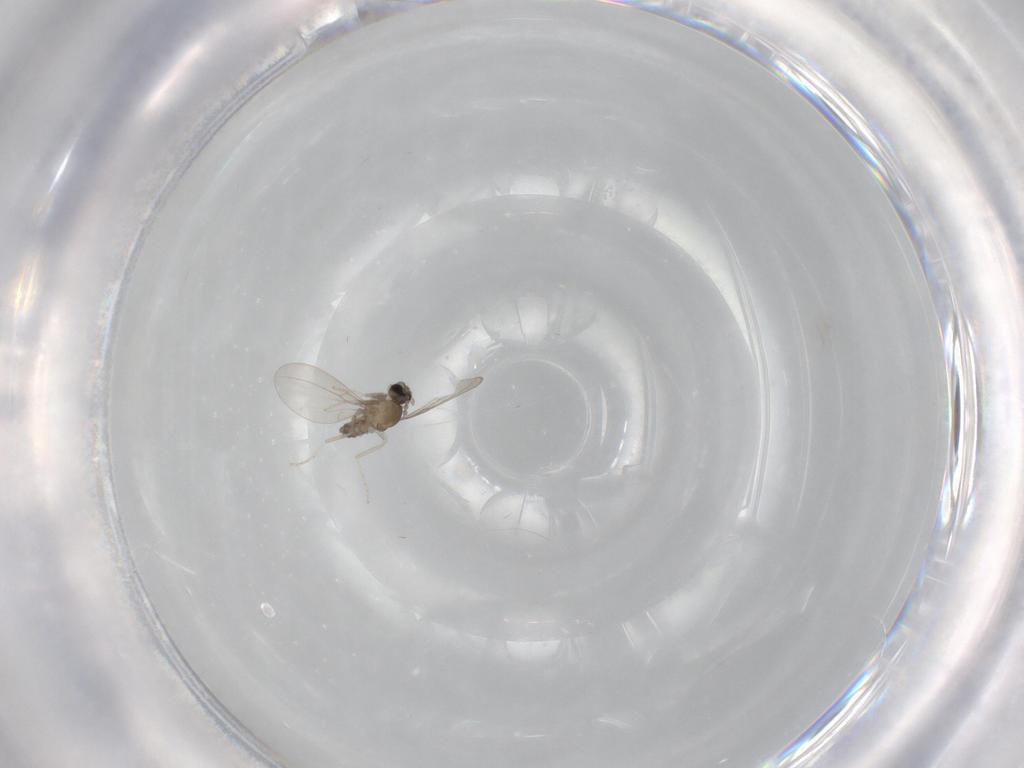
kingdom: Animalia
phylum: Arthropoda
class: Insecta
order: Diptera
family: Cecidomyiidae
